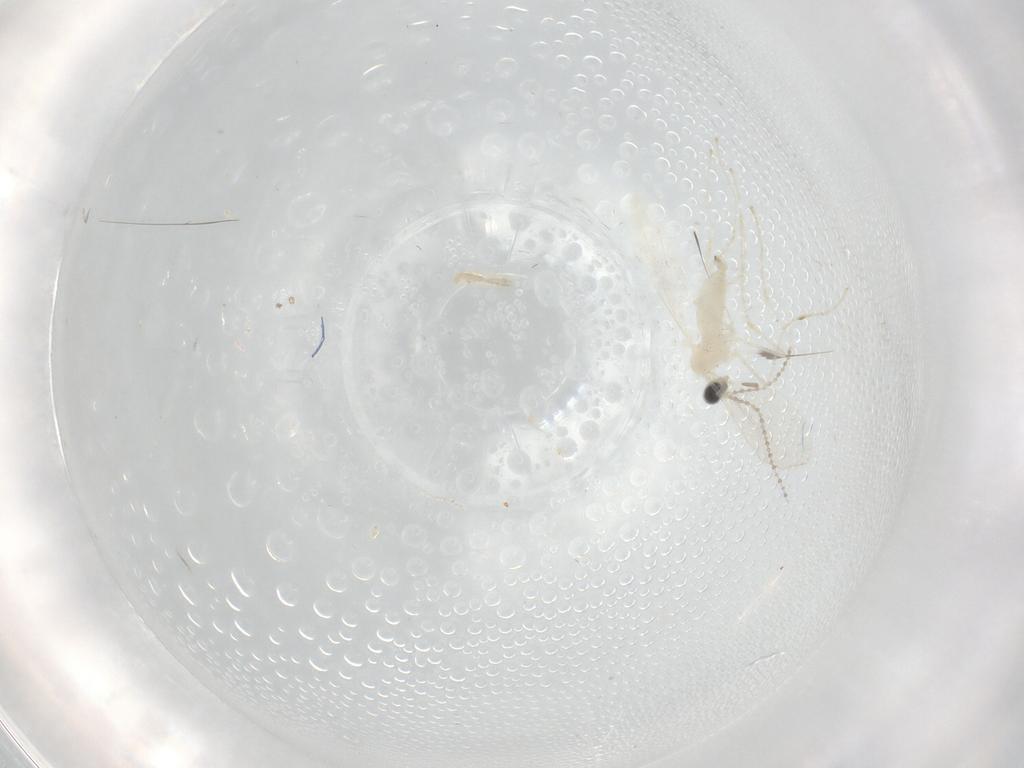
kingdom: Animalia
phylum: Arthropoda
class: Insecta
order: Diptera
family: Cecidomyiidae
